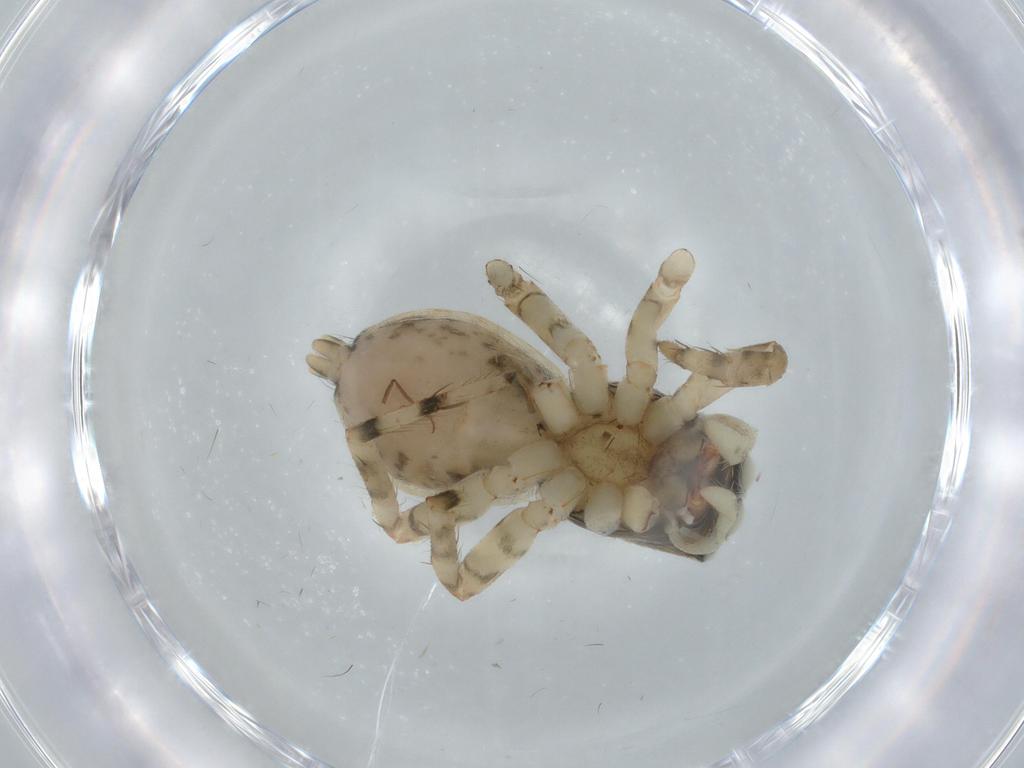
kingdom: Animalia
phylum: Arthropoda
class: Arachnida
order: Araneae
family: Salticidae
